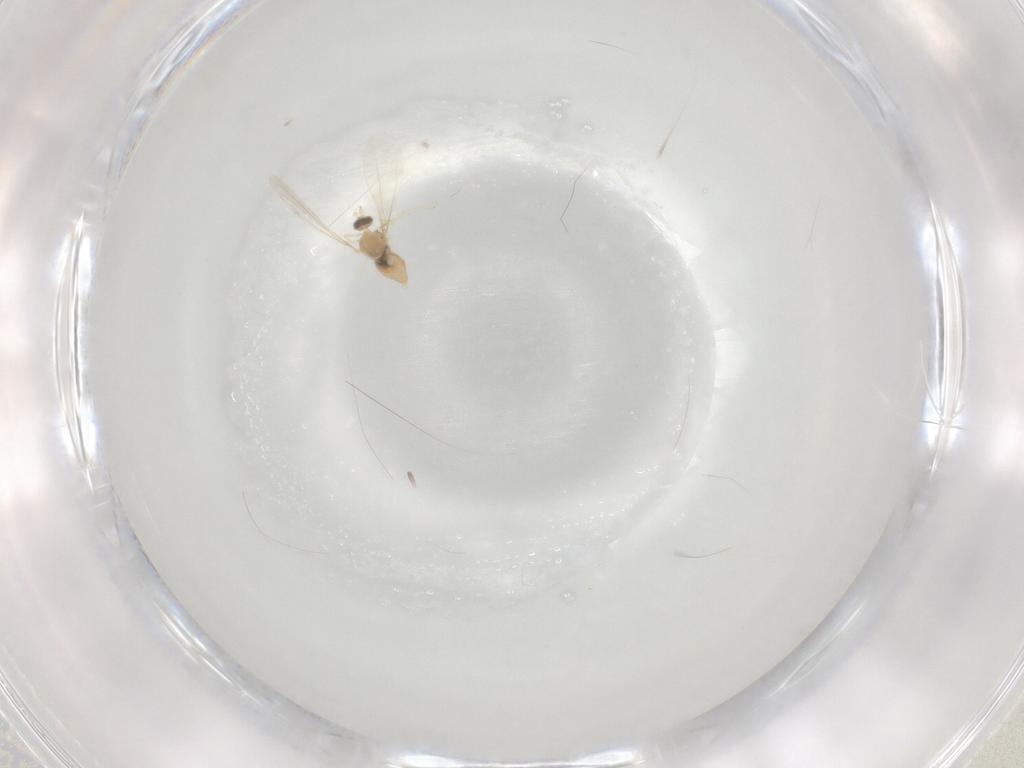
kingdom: Animalia
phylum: Arthropoda
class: Insecta
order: Diptera
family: Cecidomyiidae
